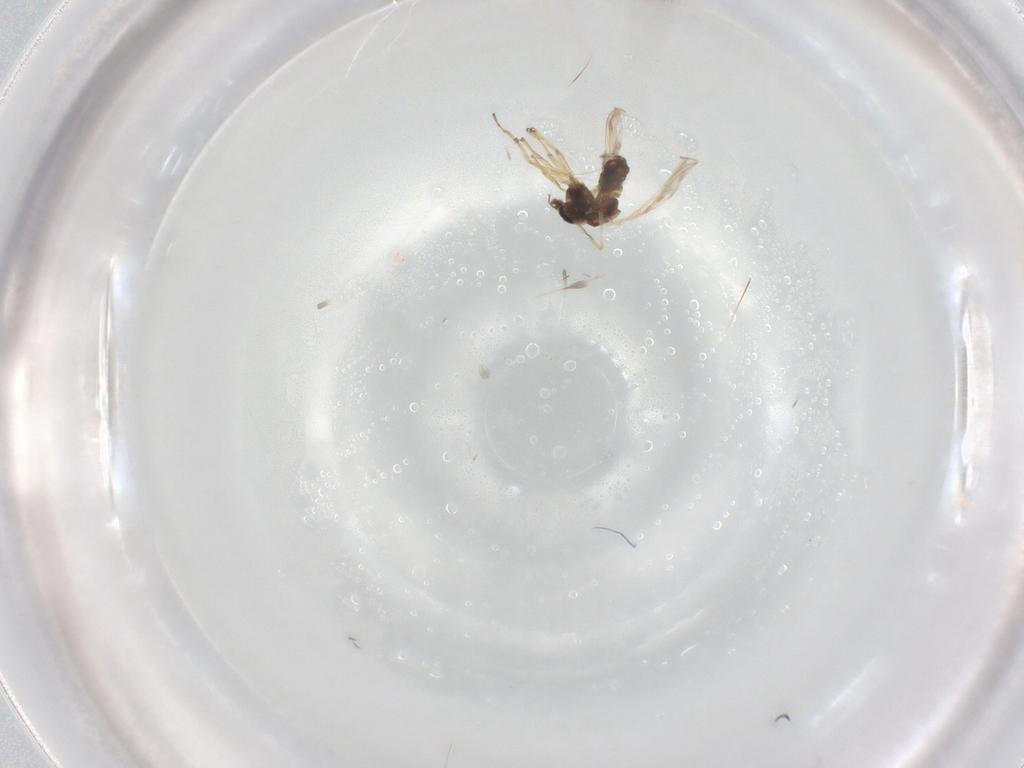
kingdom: Animalia
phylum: Arthropoda
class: Insecta
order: Diptera
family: Chironomidae
